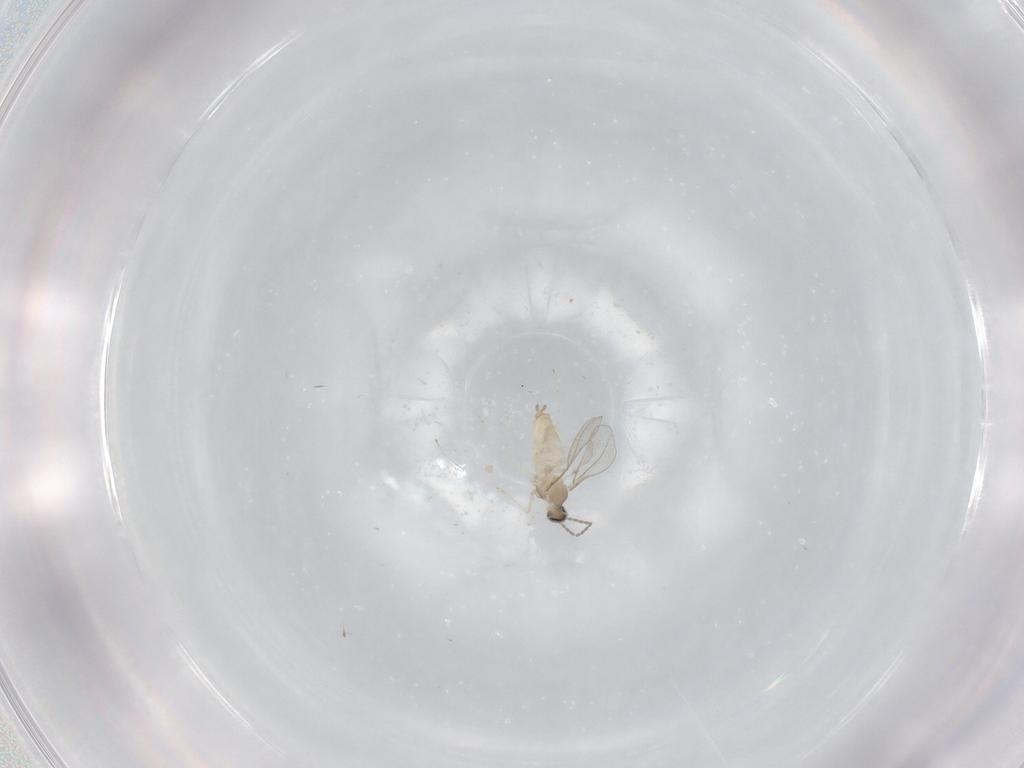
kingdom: Animalia
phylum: Arthropoda
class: Insecta
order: Diptera
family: Cecidomyiidae
